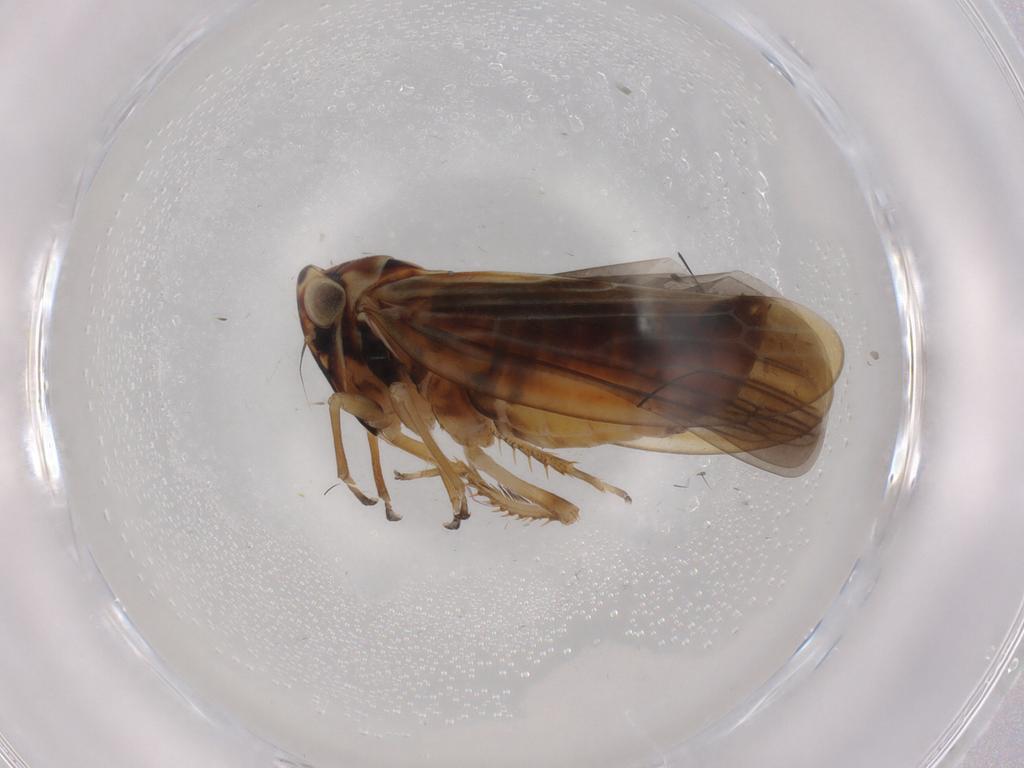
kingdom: Animalia
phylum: Arthropoda
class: Insecta
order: Hemiptera
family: Cicadellidae
